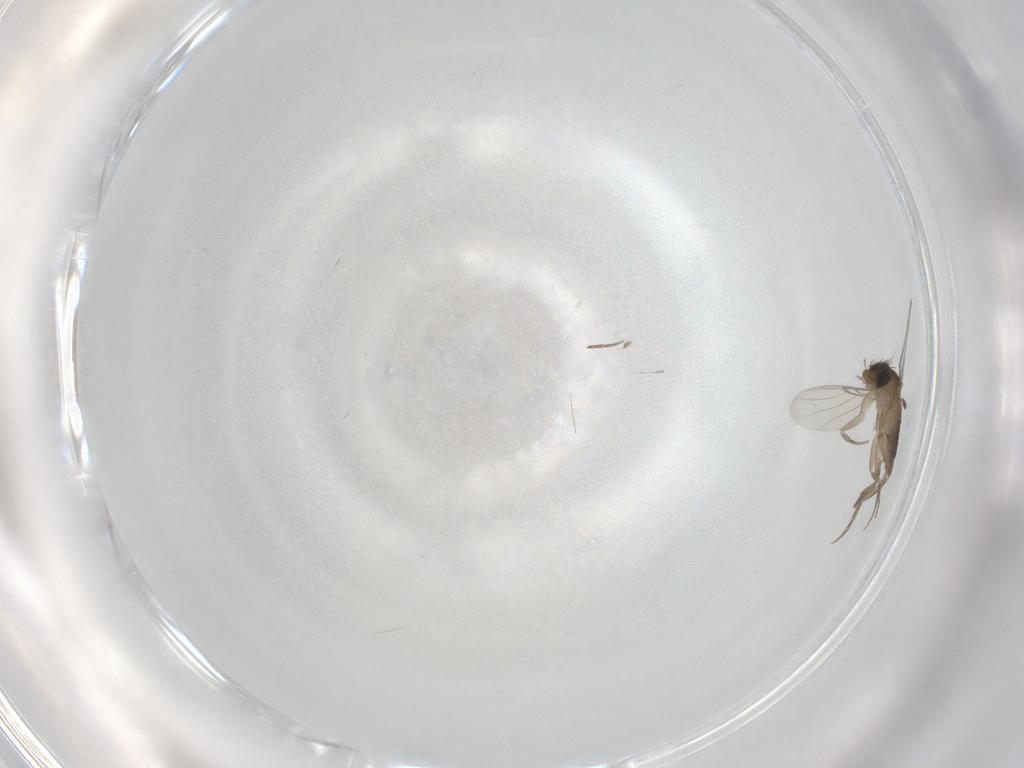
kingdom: Animalia
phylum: Arthropoda
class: Insecta
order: Diptera
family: Phoridae
